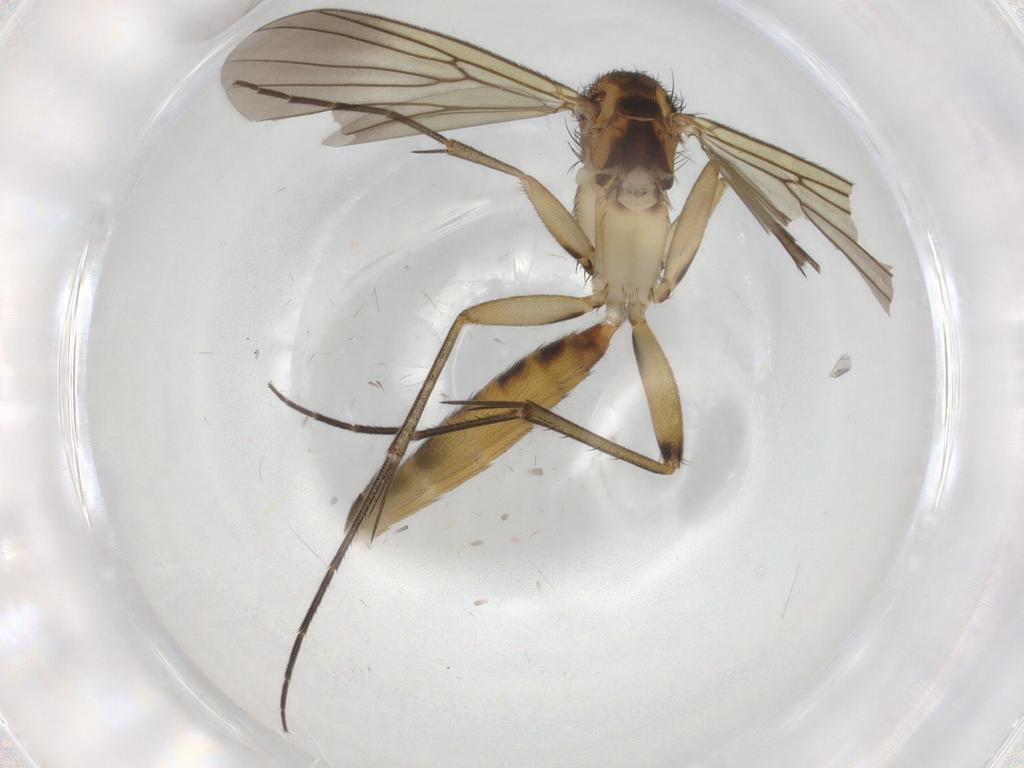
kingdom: Animalia
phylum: Arthropoda
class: Insecta
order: Diptera
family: Mycetophilidae
